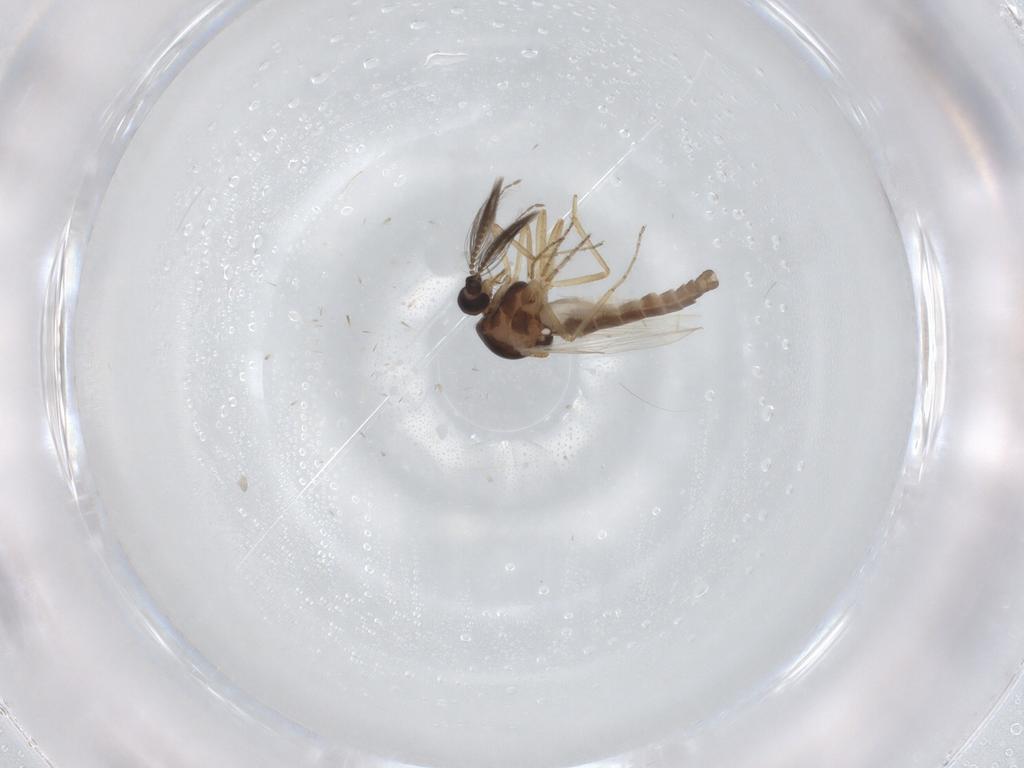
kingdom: Animalia
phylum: Arthropoda
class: Insecta
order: Diptera
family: Ceratopogonidae
